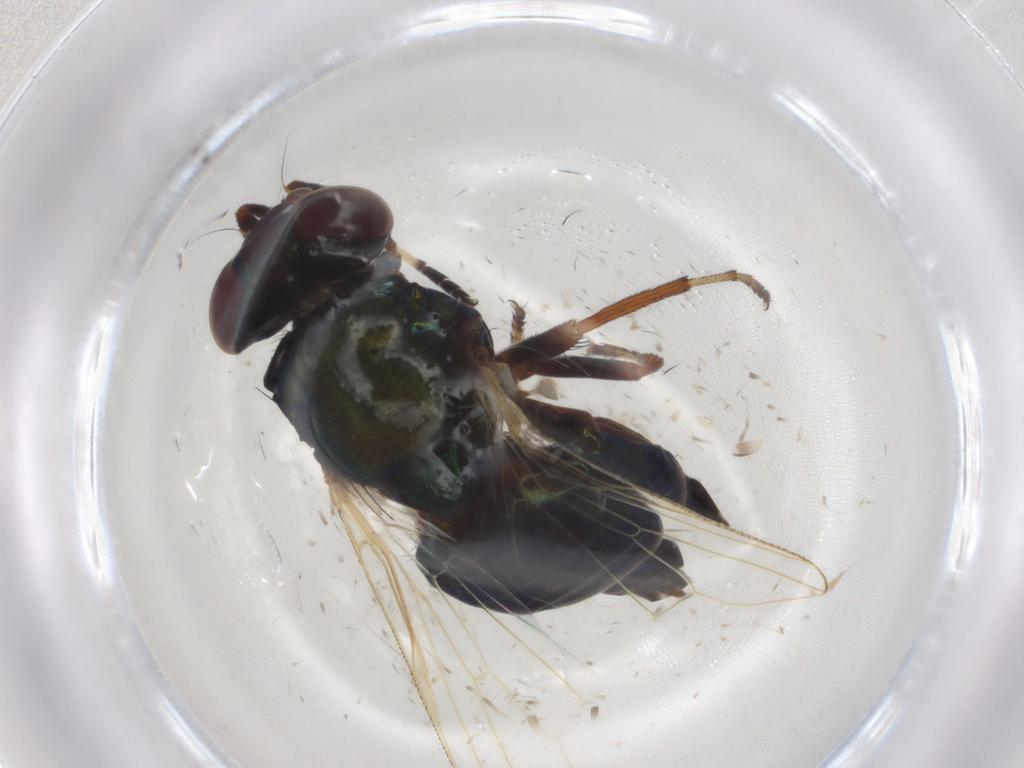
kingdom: Animalia
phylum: Arthropoda
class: Insecta
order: Diptera
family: Ulidiidae
